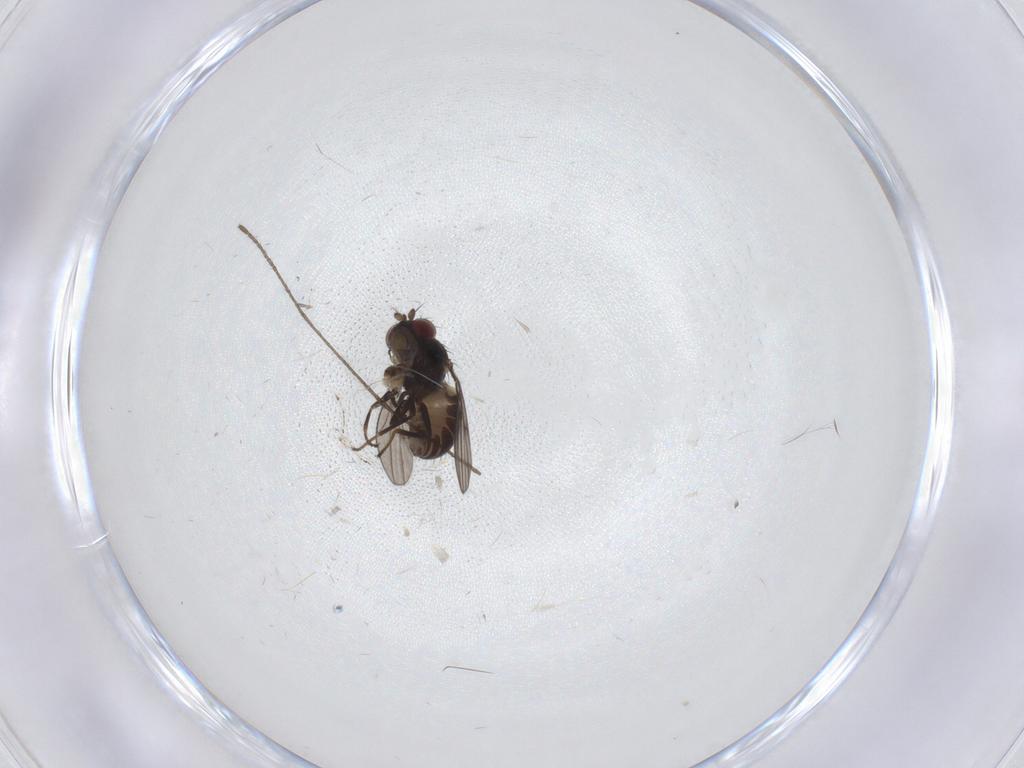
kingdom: Animalia
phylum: Arthropoda
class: Insecta
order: Diptera
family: Ephydridae
